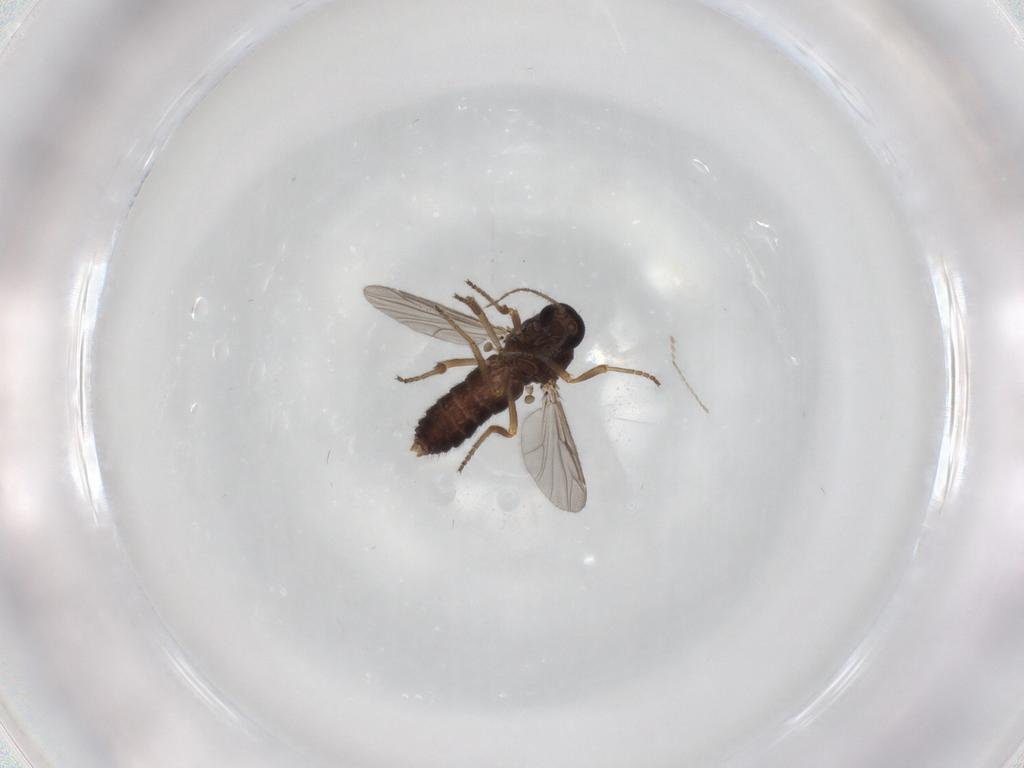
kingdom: Animalia
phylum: Arthropoda
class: Insecta
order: Diptera
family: Ceratopogonidae
